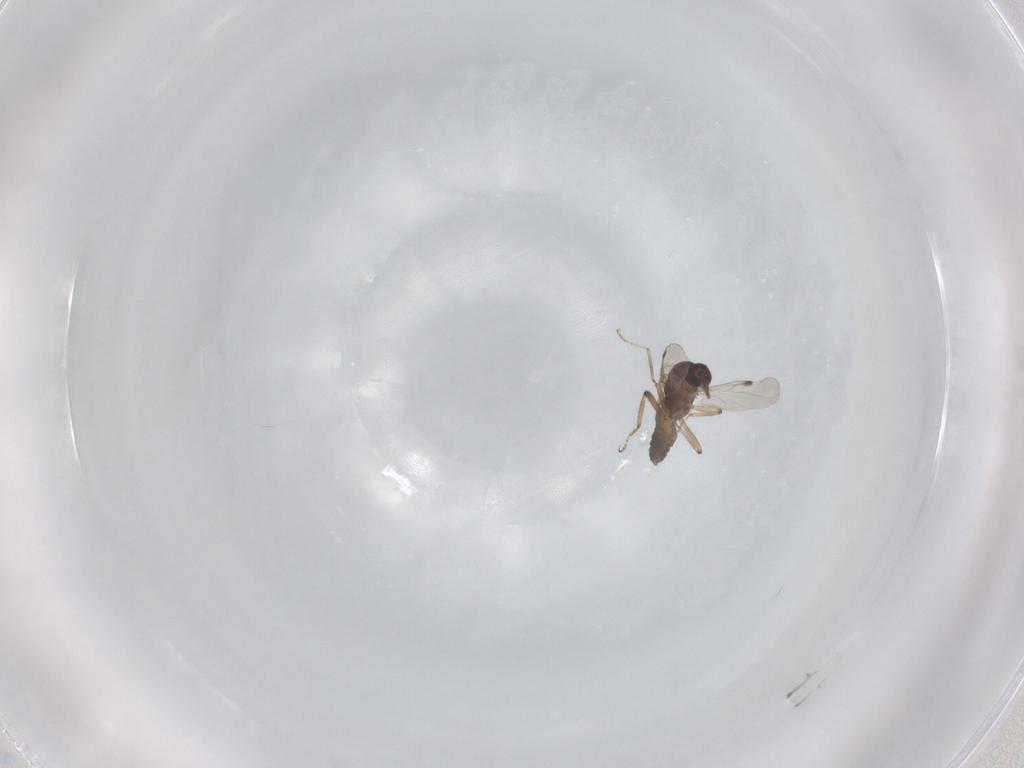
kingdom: Animalia
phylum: Arthropoda
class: Insecta
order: Diptera
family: Ceratopogonidae
